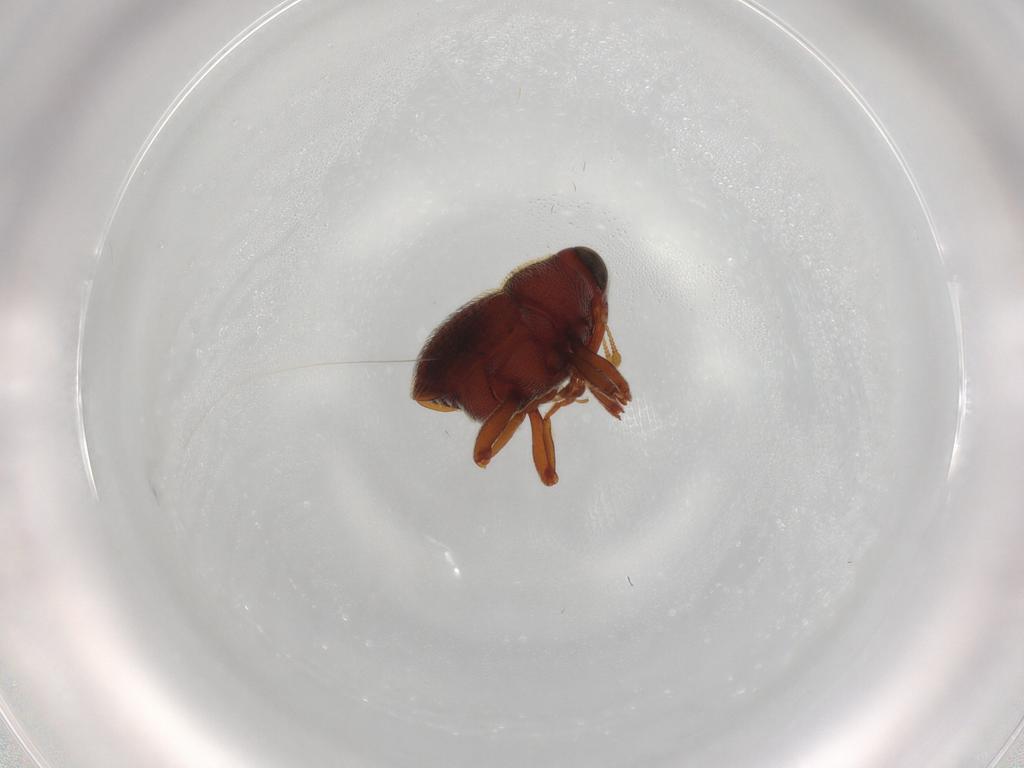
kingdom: Animalia
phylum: Arthropoda
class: Insecta
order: Coleoptera
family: Curculionidae
